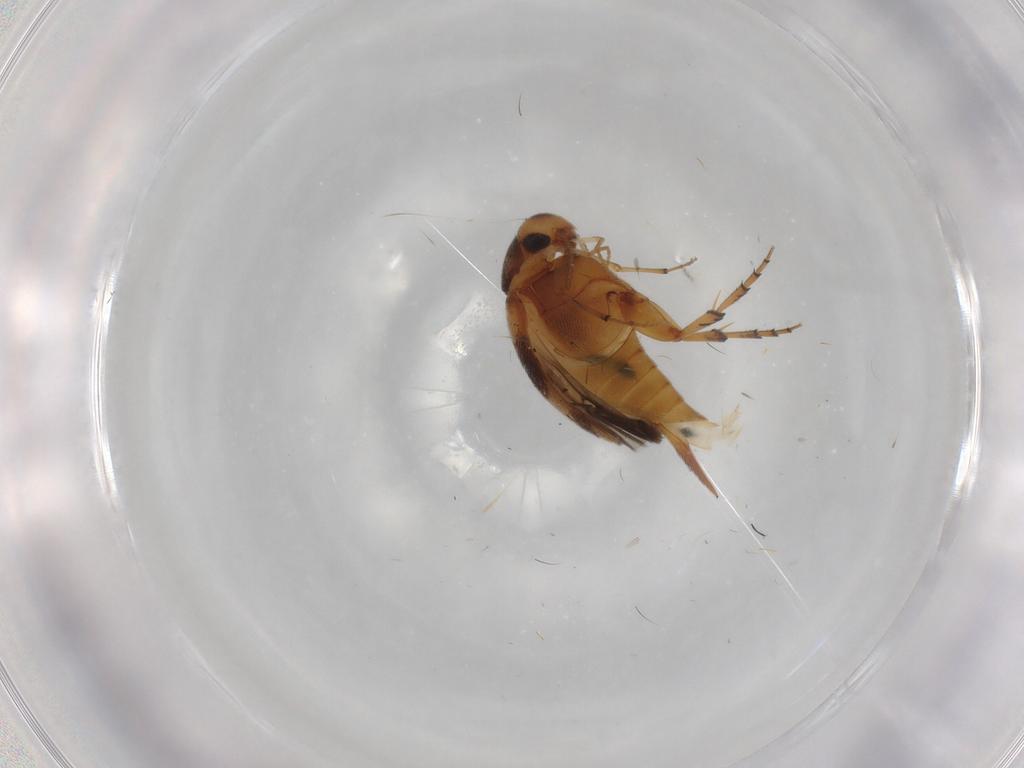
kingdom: Animalia
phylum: Arthropoda
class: Insecta
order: Coleoptera
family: Mordellidae
